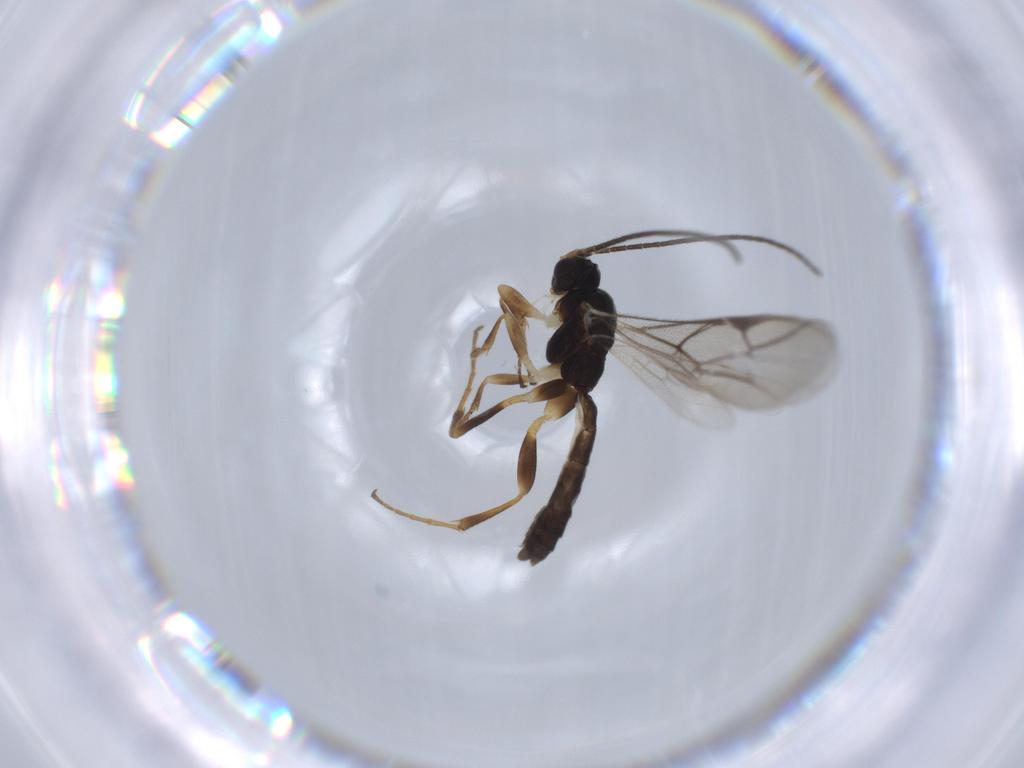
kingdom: Animalia
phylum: Arthropoda
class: Insecta
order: Hymenoptera
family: Ichneumonidae
